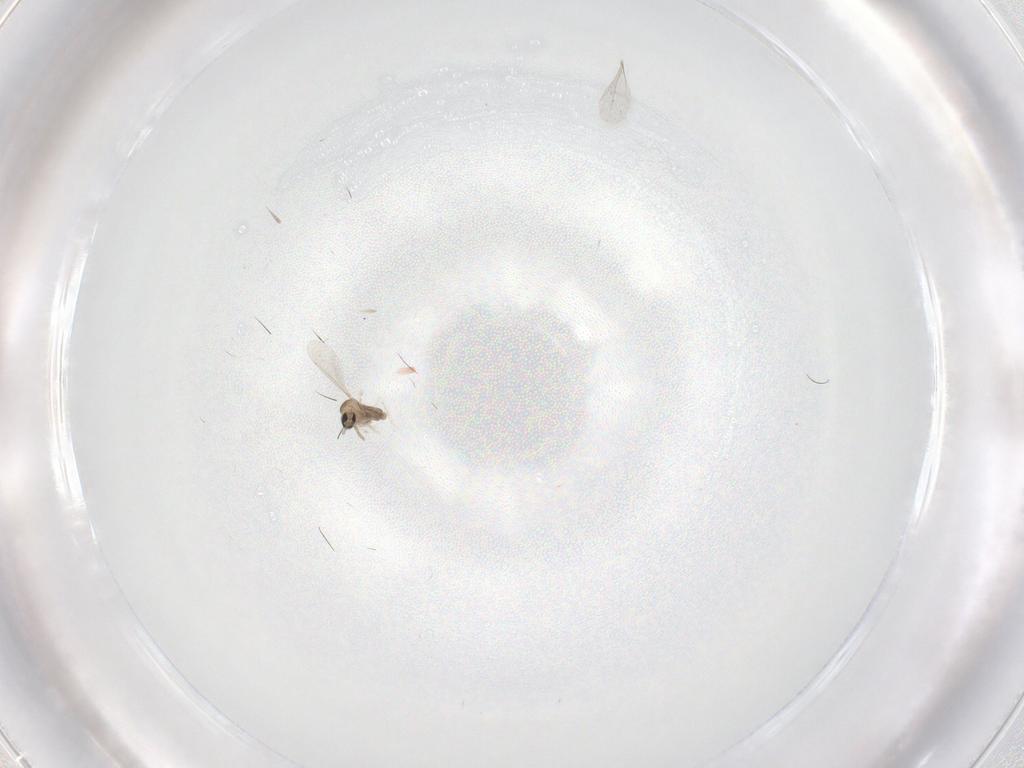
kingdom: Animalia
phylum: Arthropoda
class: Insecta
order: Diptera
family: Cecidomyiidae
